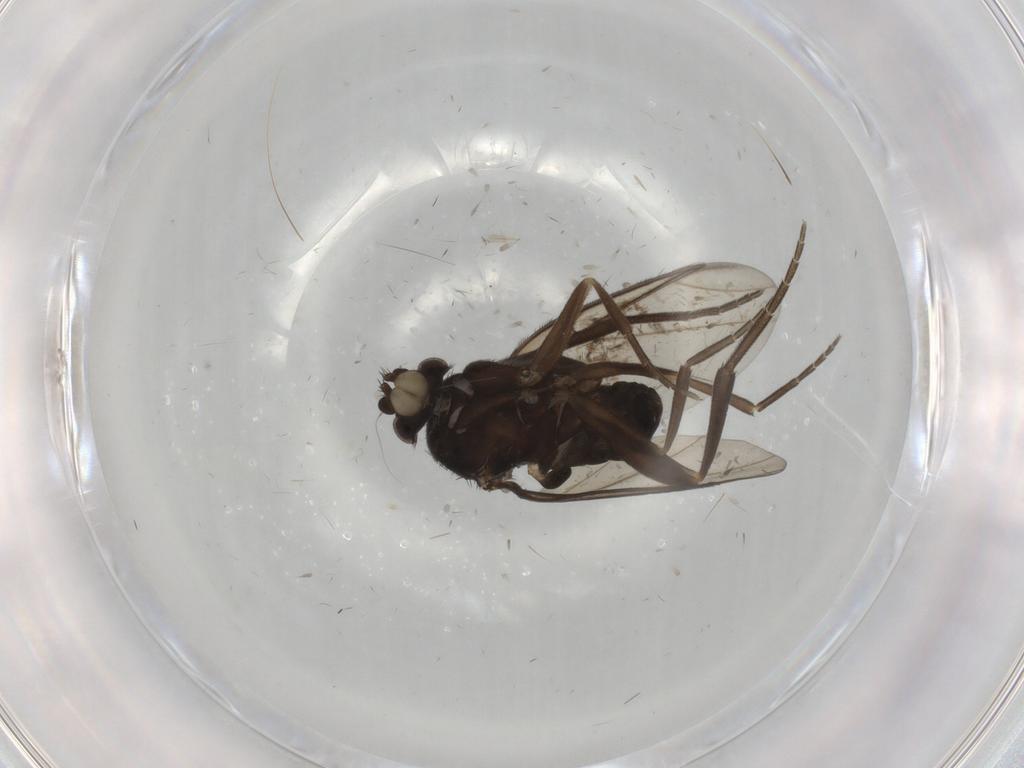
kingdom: Animalia
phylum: Arthropoda
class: Insecta
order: Diptera
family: Phoridae
